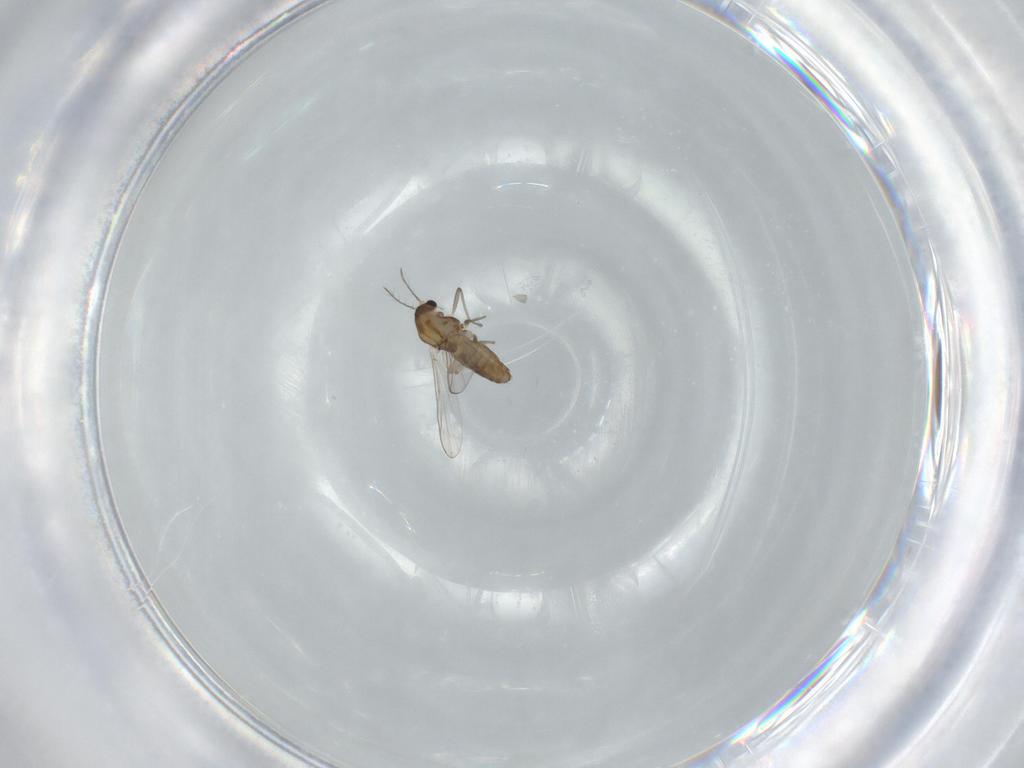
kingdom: Animalia
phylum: Arthropoda
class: Insecta
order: Diptera
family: Chironomidae
